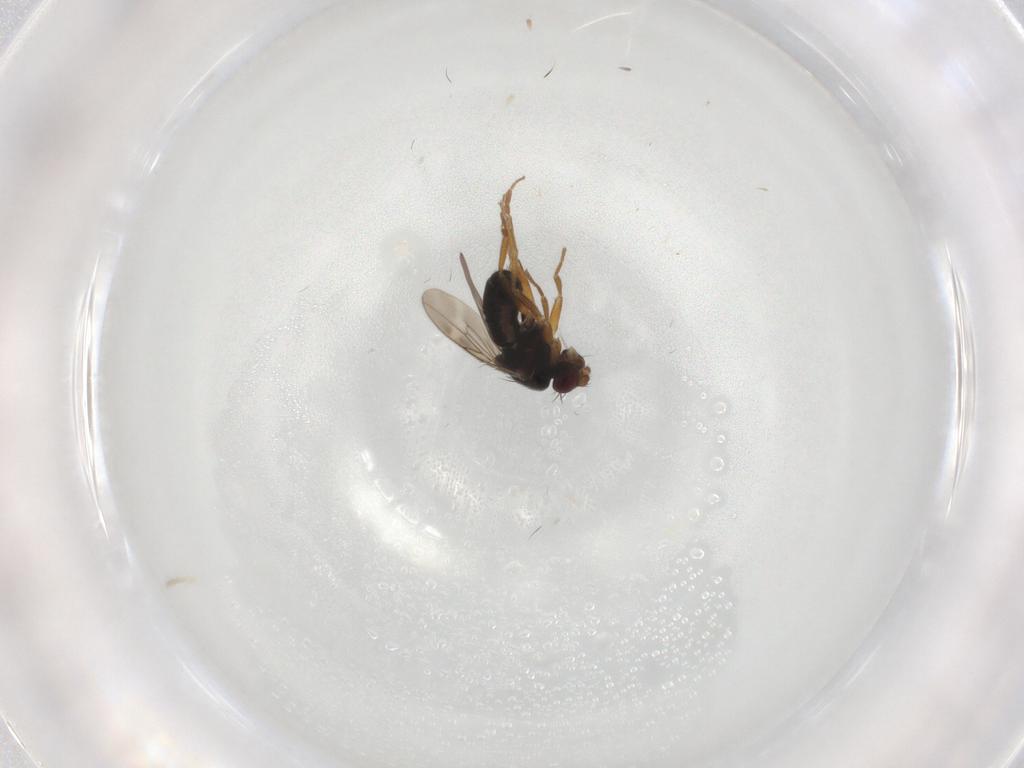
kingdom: Animalia
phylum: Arthropoda
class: Insecta
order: Diptera
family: Sphaeroceridae
